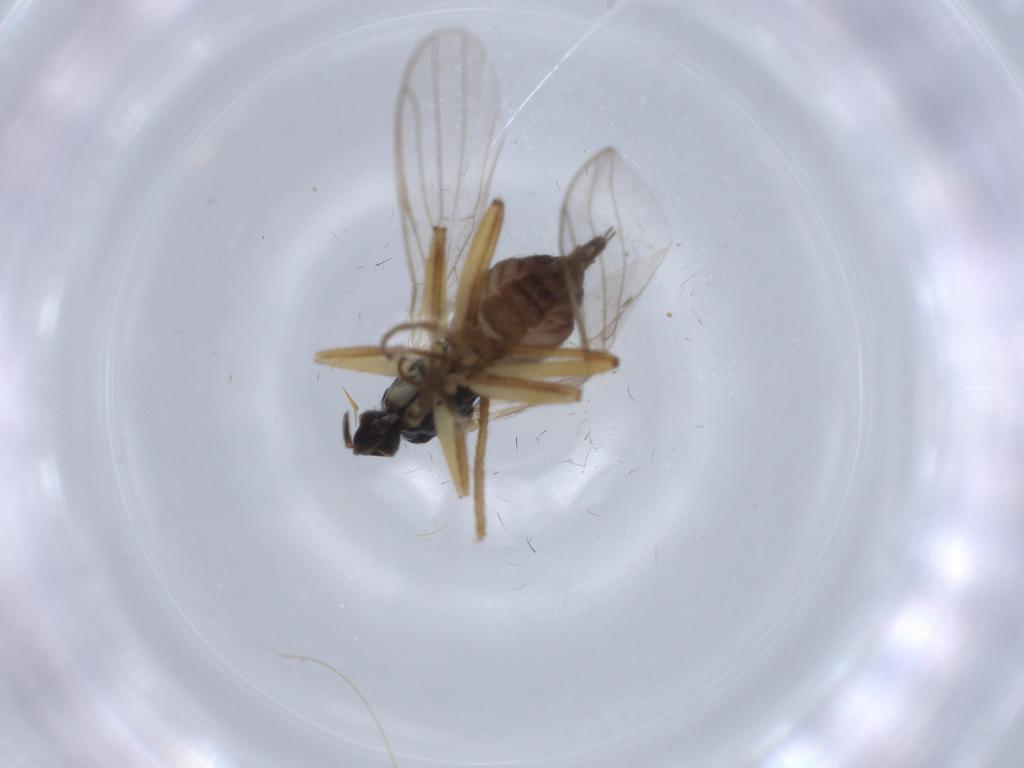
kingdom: Animalia
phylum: Arthropoda
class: Insecta
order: Diptera
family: Hybotidae
